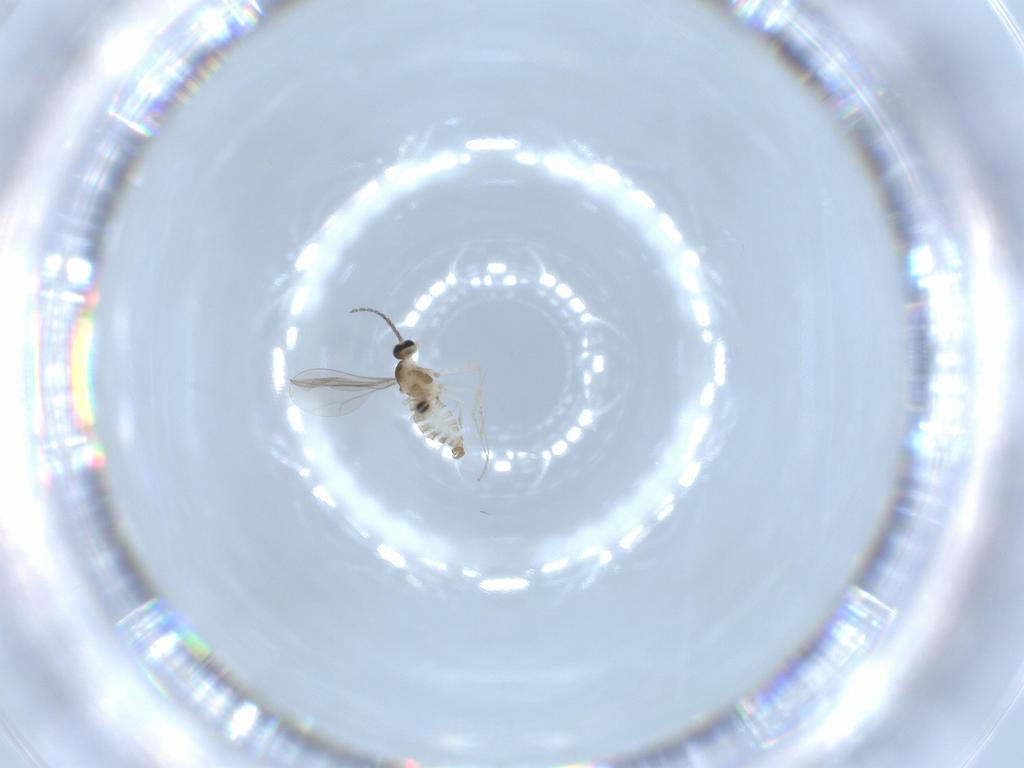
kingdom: Animalia
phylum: Arthropoda
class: Insecta
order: Diptera
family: Cecidomyiidae
